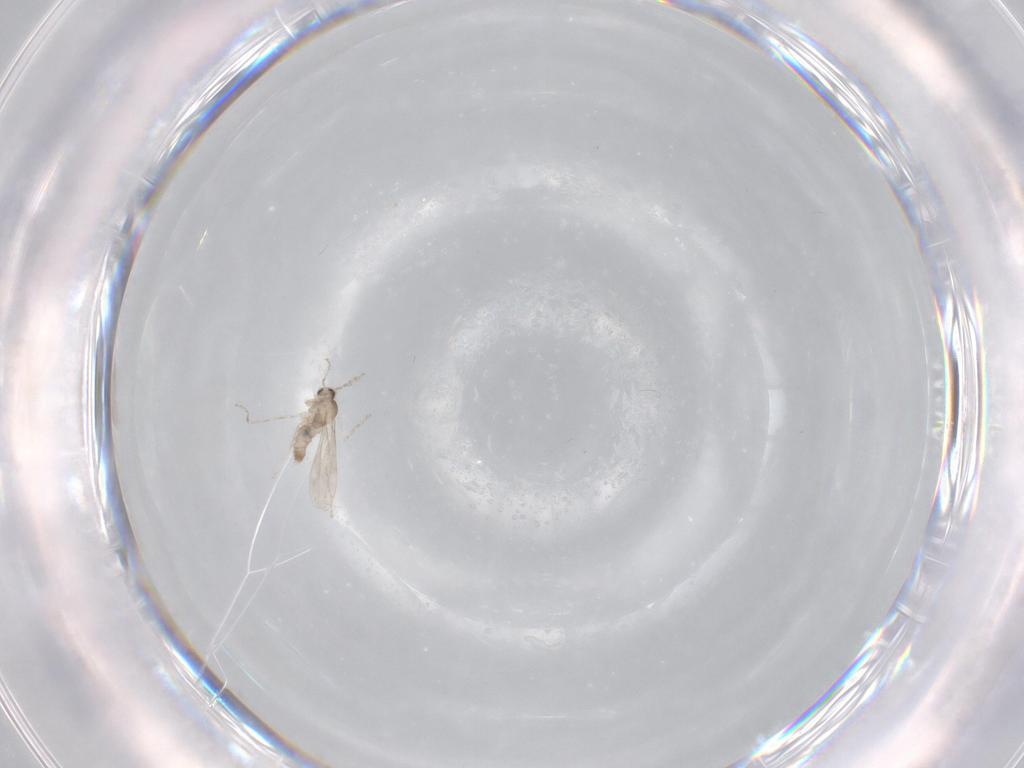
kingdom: Animalia
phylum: Arthropoda
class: Insecta
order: Diptera
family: Cecidomyiidae
